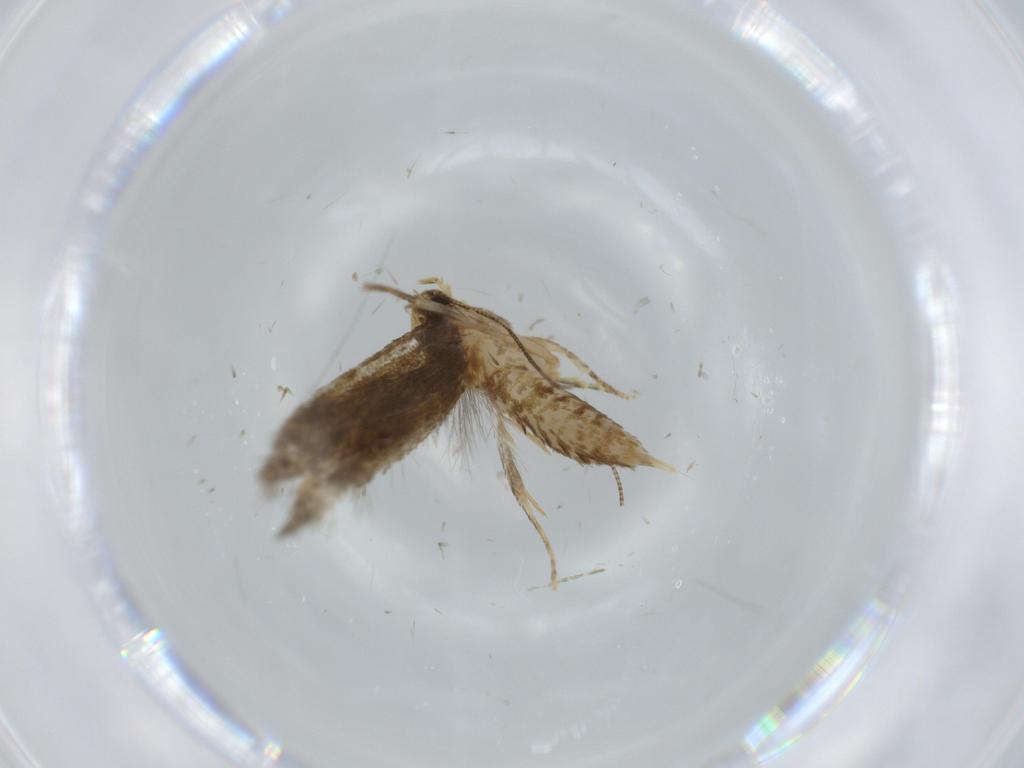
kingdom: Animalia
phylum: Arthropoda
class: Insecta
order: Lepidoptera
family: Tineidae
